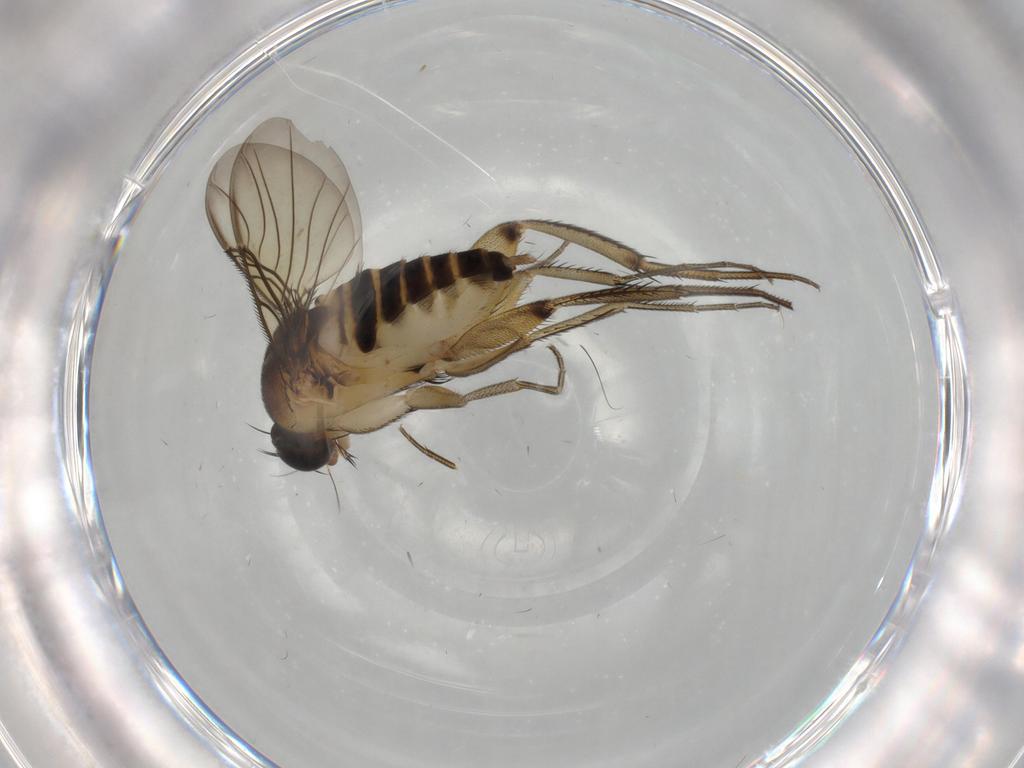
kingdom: Animalia
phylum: Arthropoda
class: Insecta
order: Diptera
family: Phoridae
